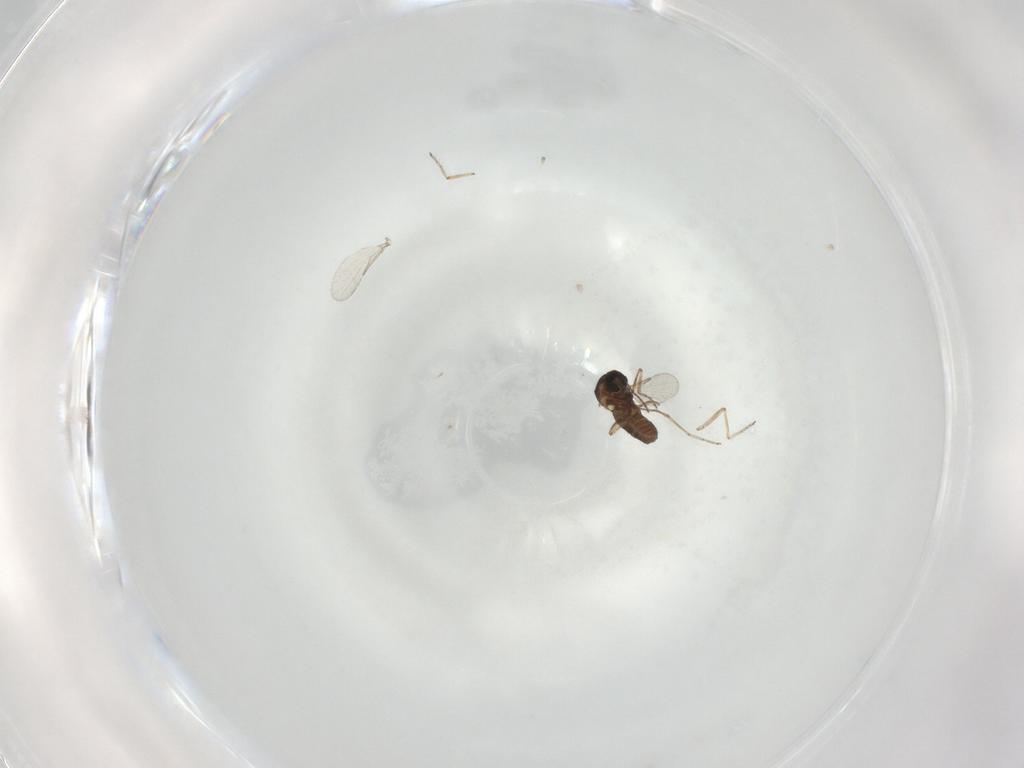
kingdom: Animalia
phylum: Arthropoda
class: Insecta
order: Diptera
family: Ceratopogonidae
